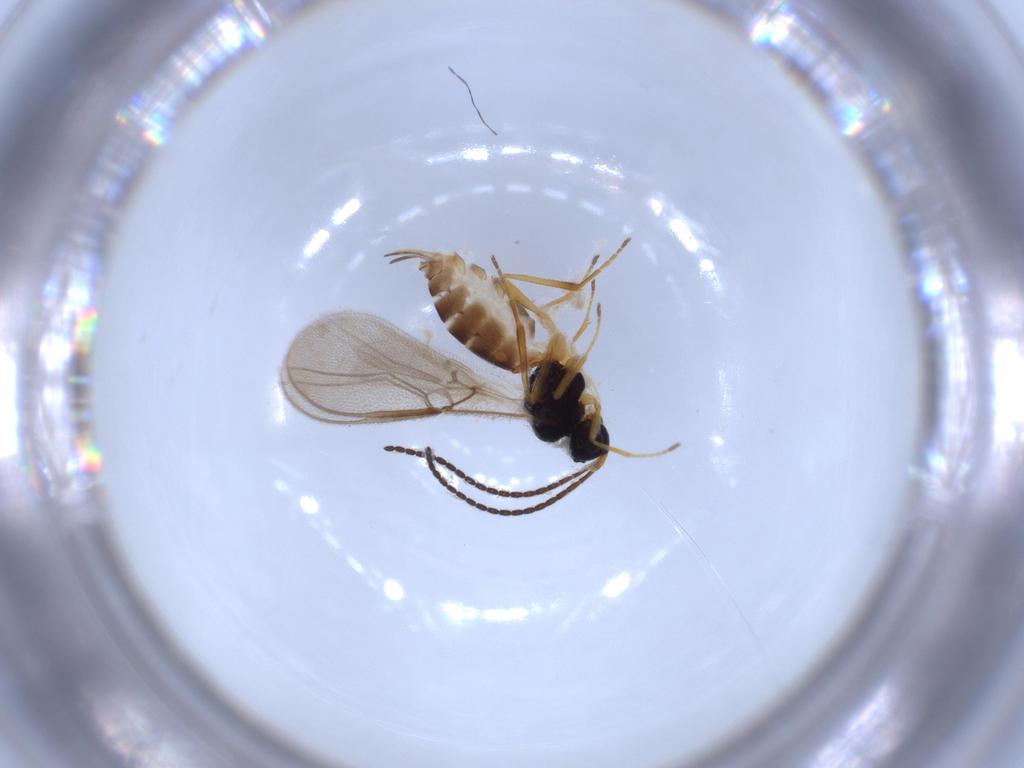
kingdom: Animalia
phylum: Arthropoda
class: Insecta
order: Hymenoptera
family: Braconidae
